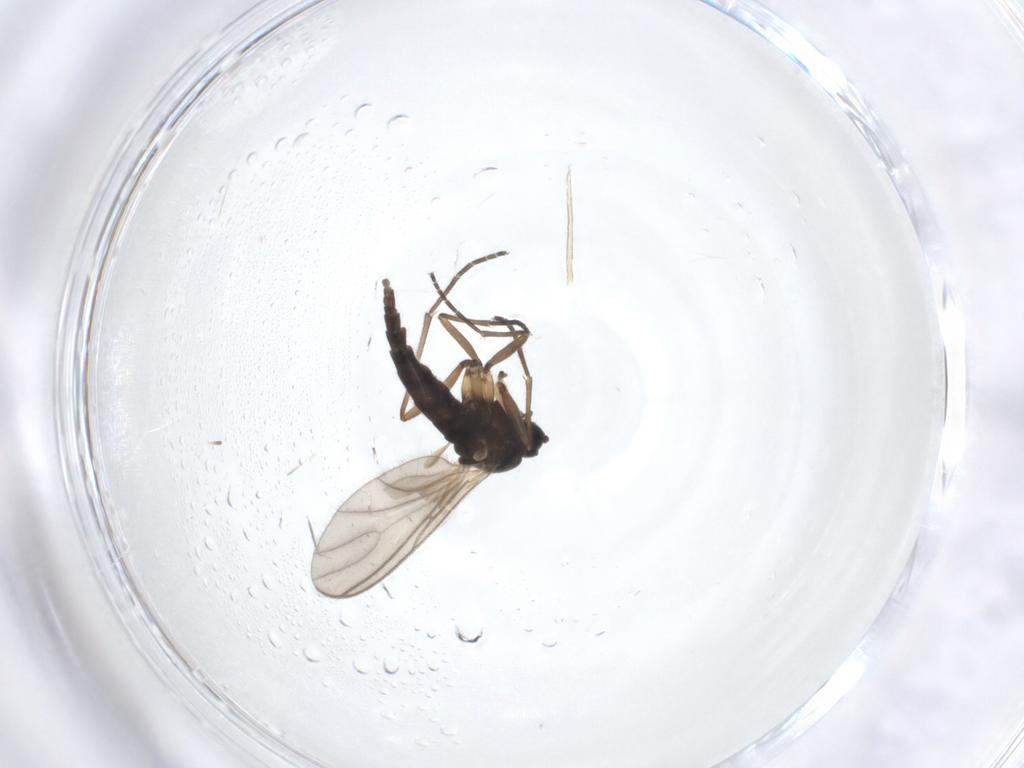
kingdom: Animalia
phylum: Arthropoda
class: Insecta
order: Diptera
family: Sciaridae
